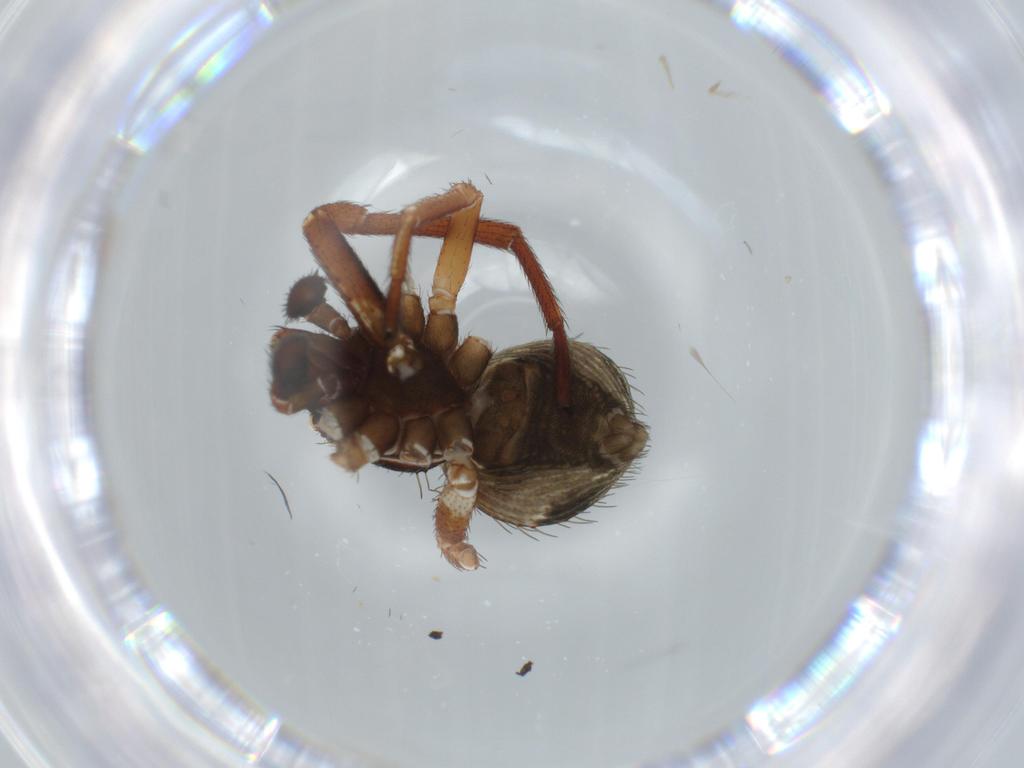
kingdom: Animalia
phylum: Arthropoda
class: Arachnida
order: Araneae
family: Thomisidae
